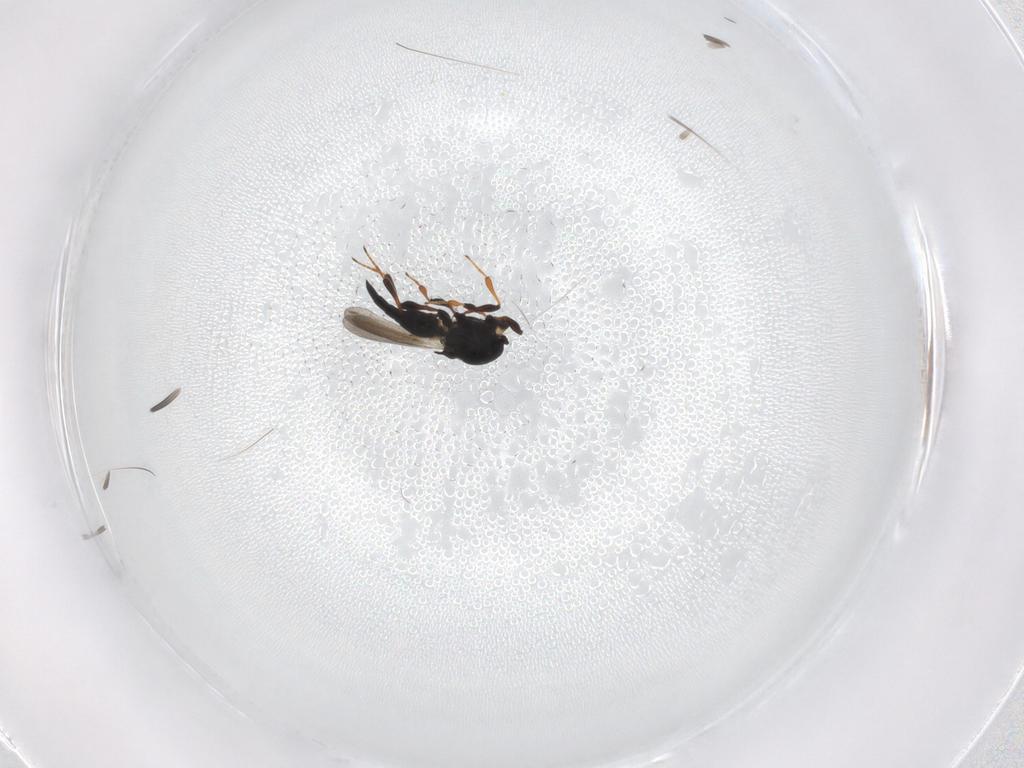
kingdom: Animalia
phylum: Arthropoda
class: Insecta
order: Hymenoptera
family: Platygastridae
